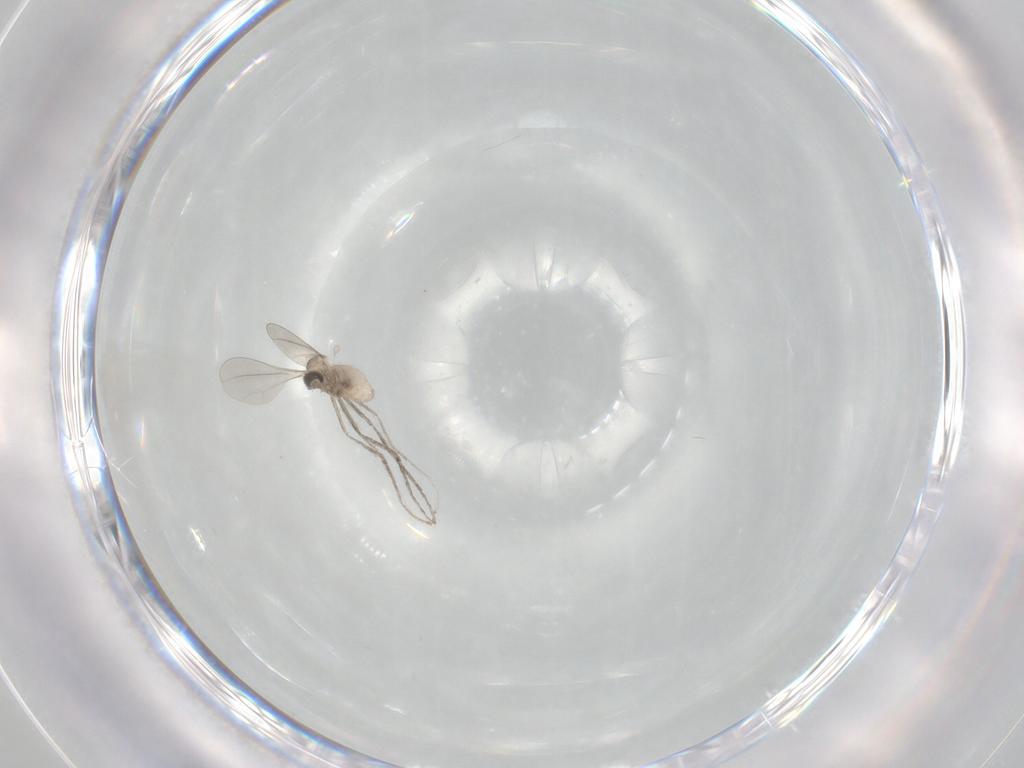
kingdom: Animalia
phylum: Arthropoda
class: Insecta
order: Diptera
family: Cecidomyiidae
